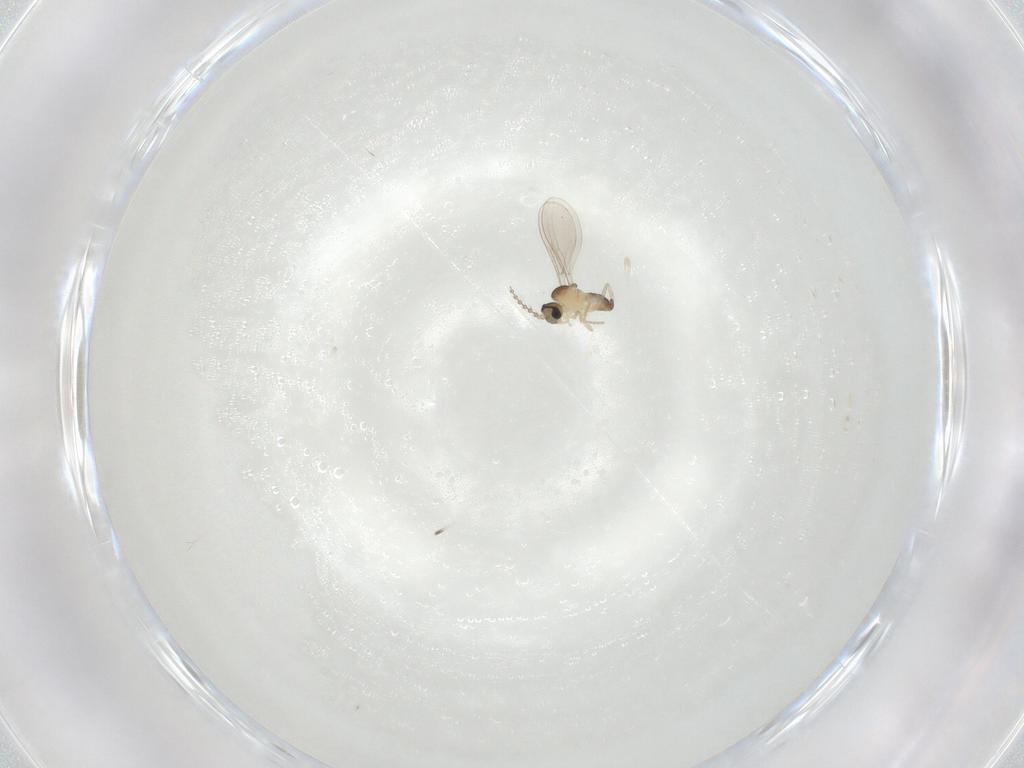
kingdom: Animalia
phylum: Arthropoda
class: Insecta
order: Diptera
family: Cecidomyiidae
